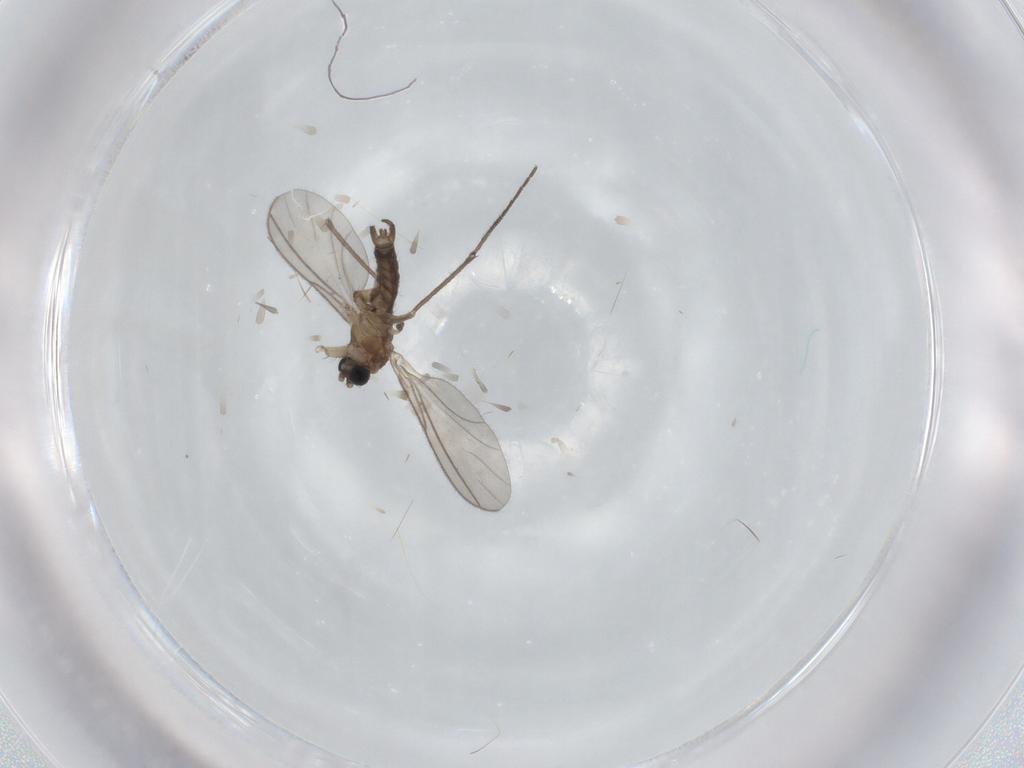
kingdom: Animalia
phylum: Arthropoda
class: Insecta
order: Diptera
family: Sciaridae
